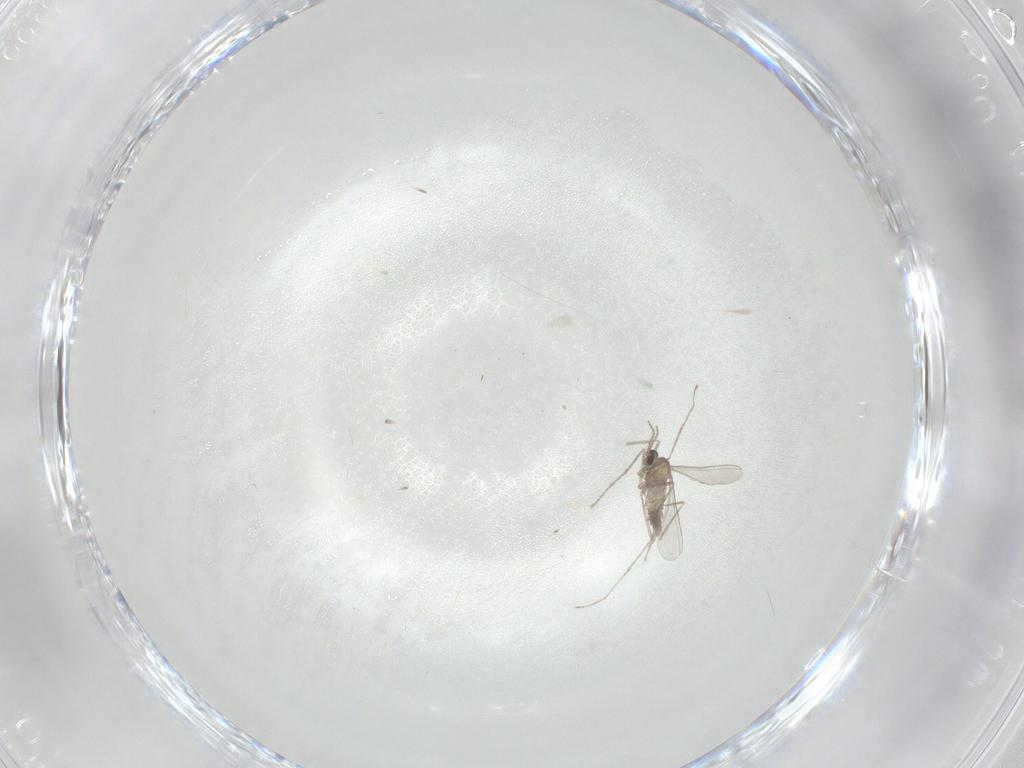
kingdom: Animalia
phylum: Arthropoda
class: Insecta
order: Diptera
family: Cecidomyiidae
